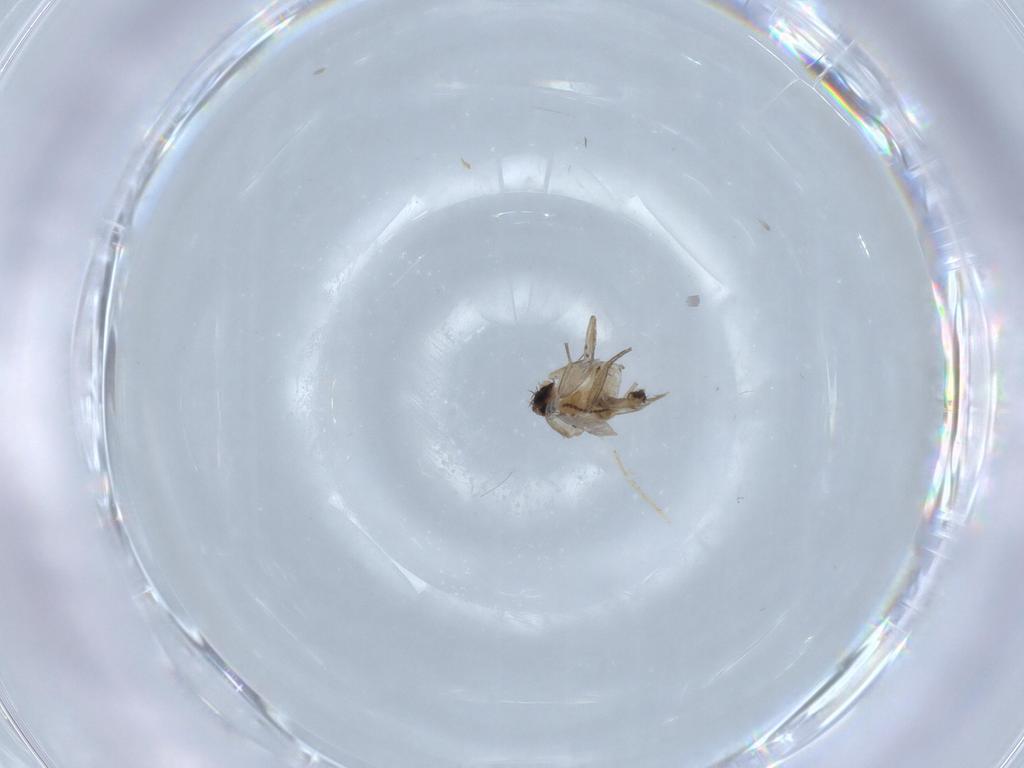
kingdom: Animalia
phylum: Arthropoda
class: Insecta
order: Diptera
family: Phoridae
